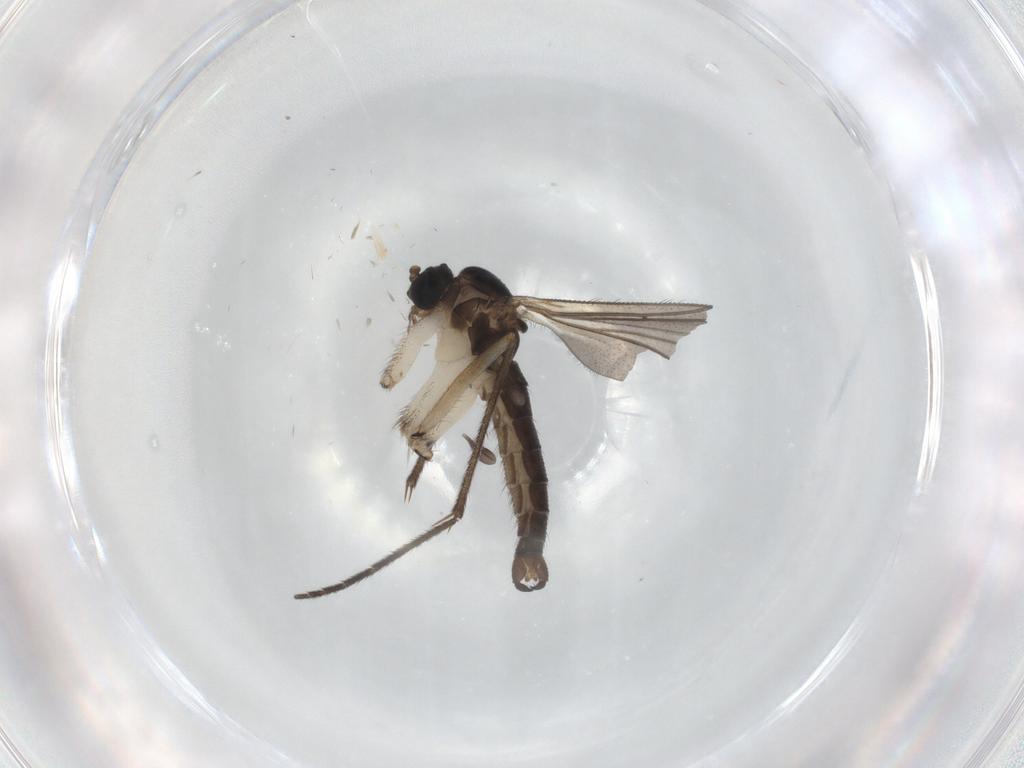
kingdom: Animalia
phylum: Arthropoda
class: Insecta
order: Diptera
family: Sciaridae
